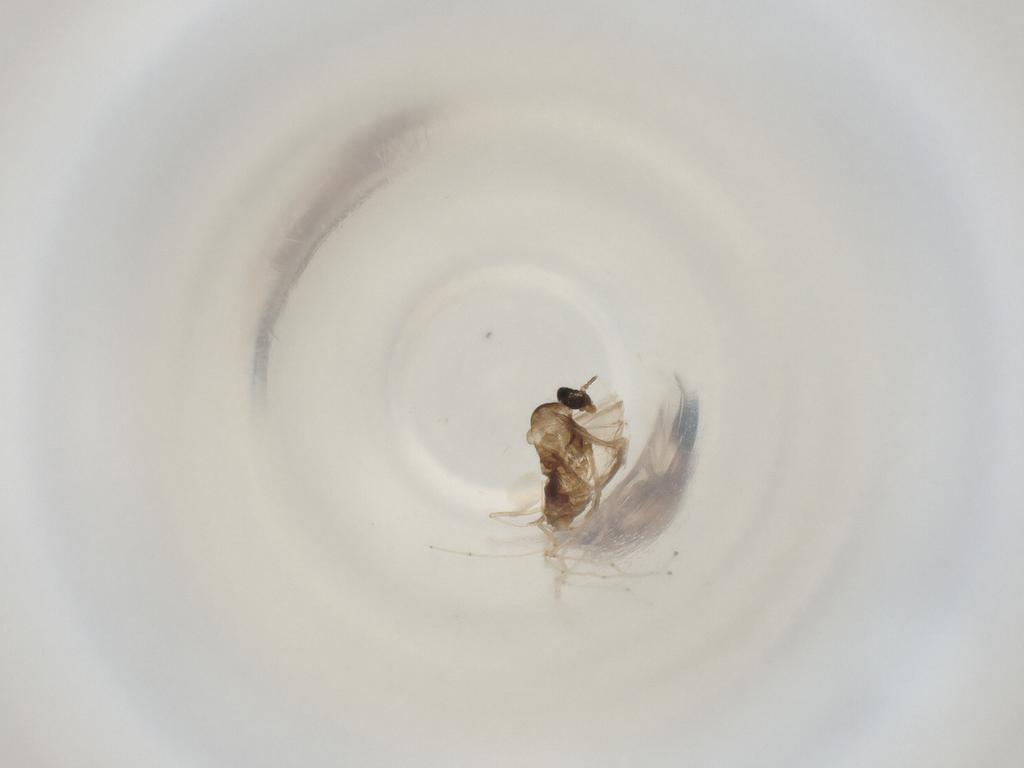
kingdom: Animalia
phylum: Arthropoda
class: Insecta
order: Diptera
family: Cecidomyiidae
